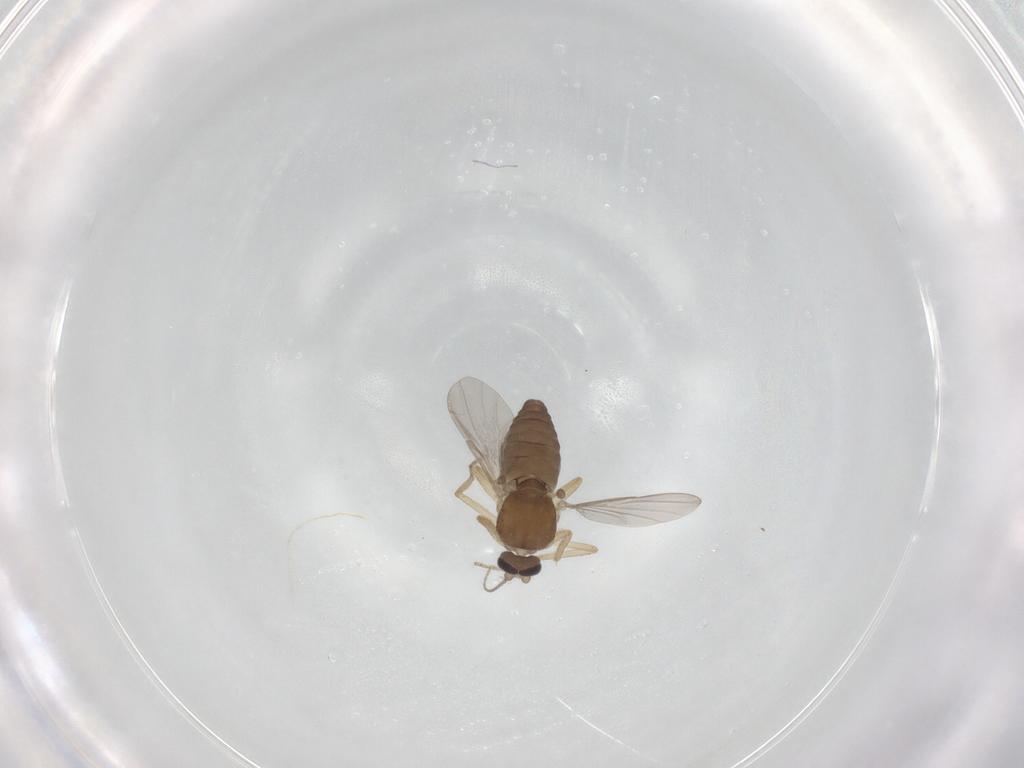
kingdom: Animalia
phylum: Arthropoda
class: Insecta
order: Diptera
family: Ceratopogonidae
